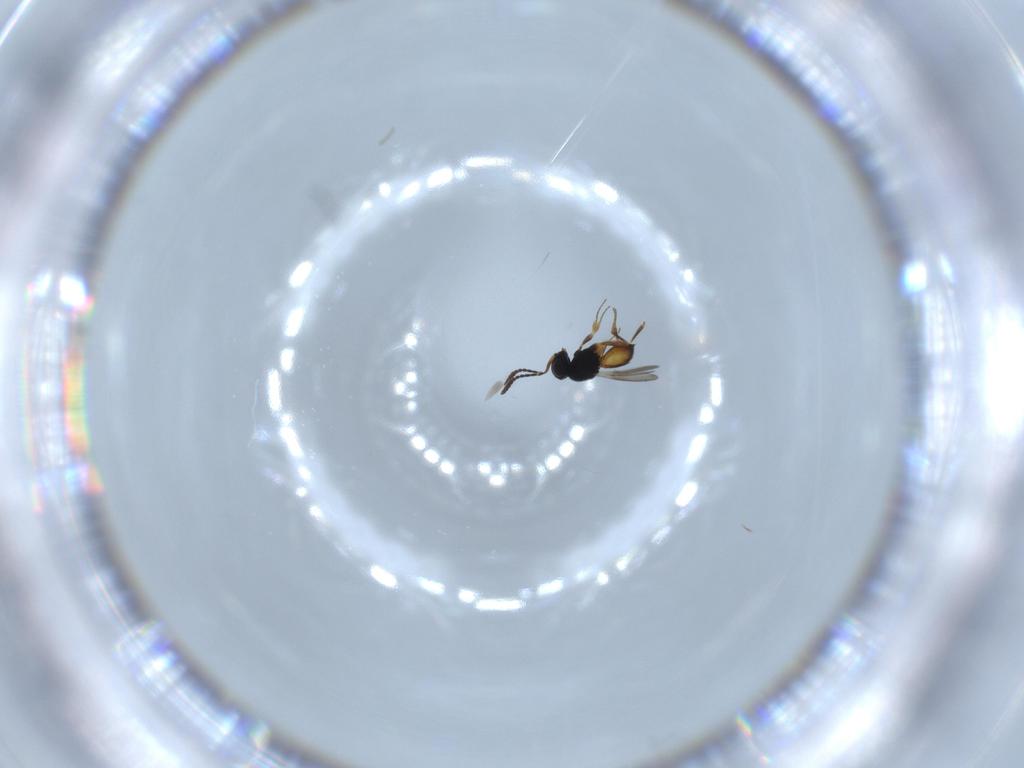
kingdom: Animalia
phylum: Arthropoda
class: Insecta
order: Hymenoptera
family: Scelionidae
